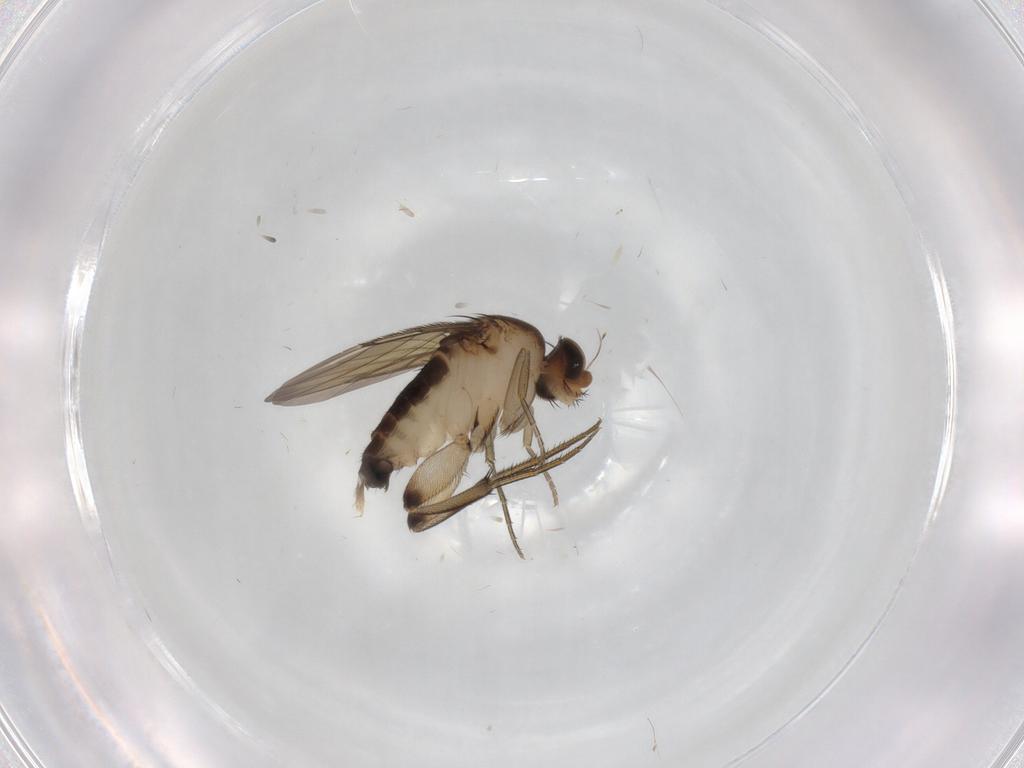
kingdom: Animalia
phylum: Arthropoda
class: Insecta
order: Diptera
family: Phoridae
